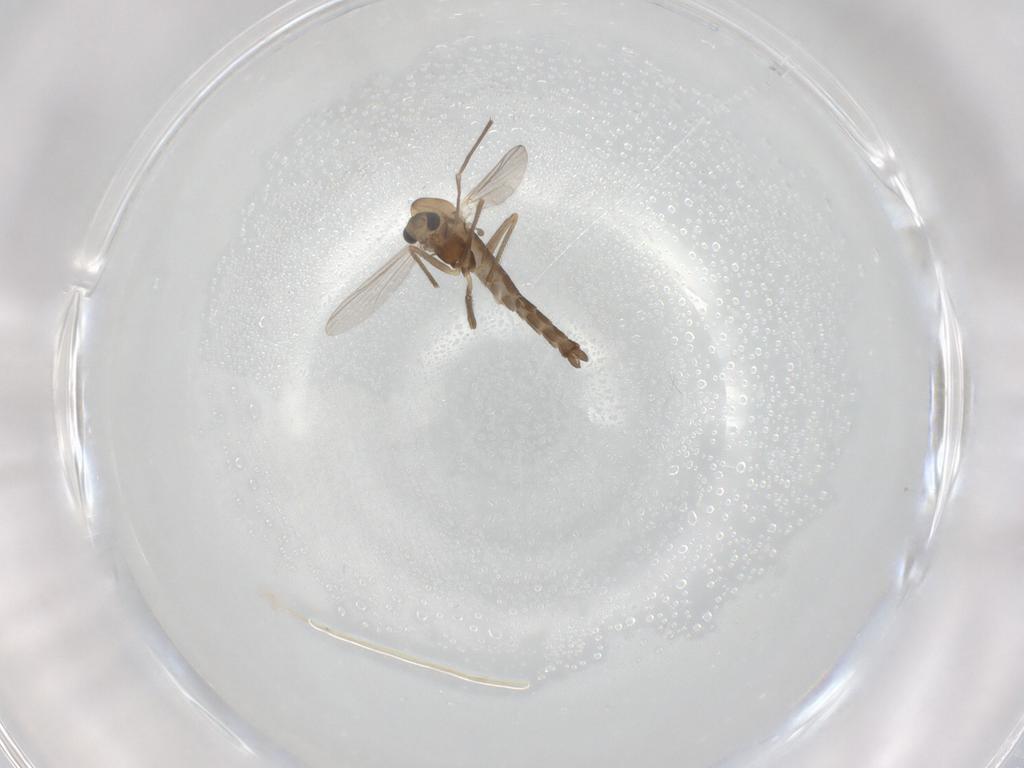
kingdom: Animalia
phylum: Arthropoda
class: Insecta
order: Diptera
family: Chironomidae
